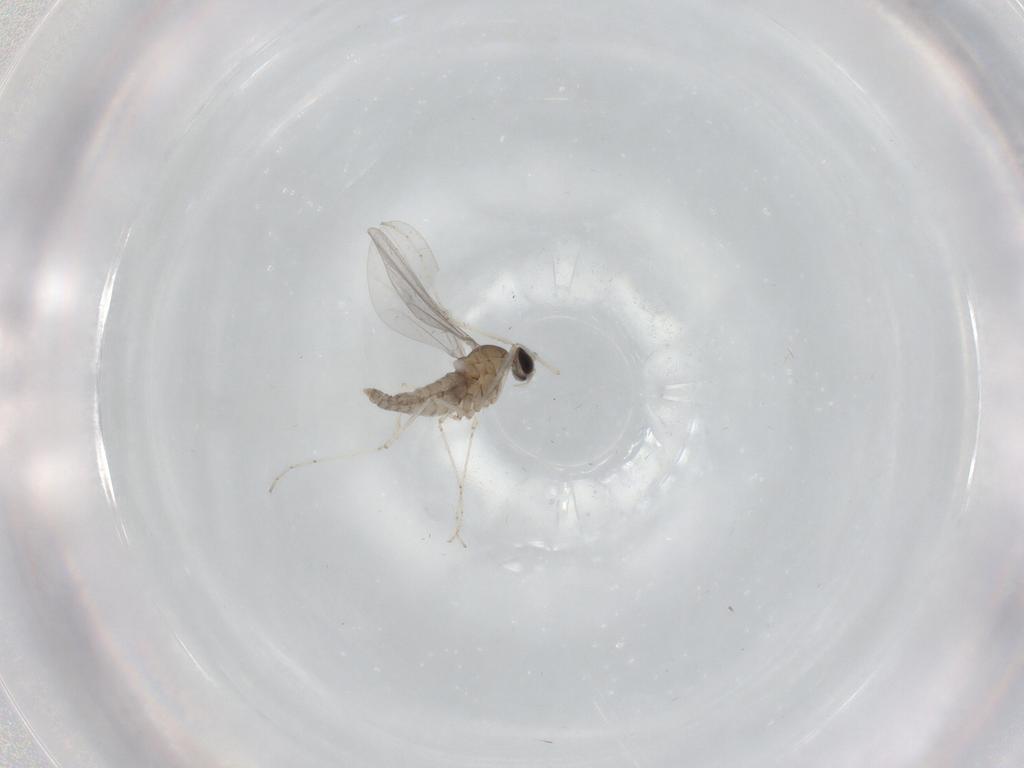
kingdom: Animalia
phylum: Arthropoda
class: Insecta
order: Diptera
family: Cecidomyiidae
